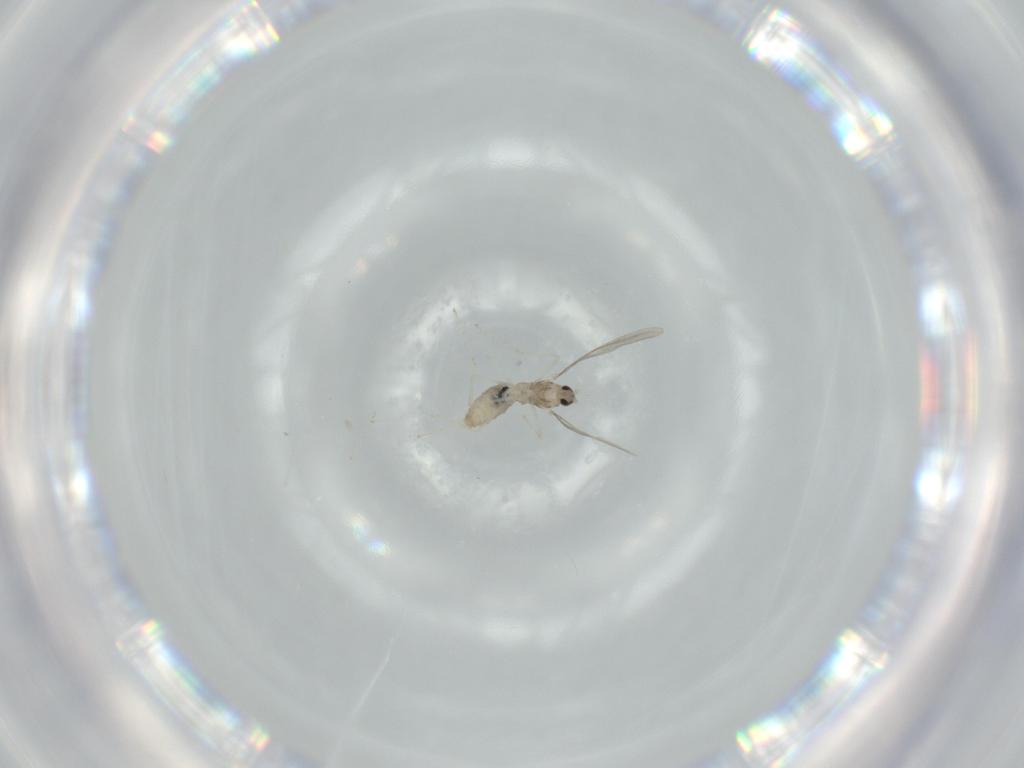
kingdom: Animalia
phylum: Arthropoda
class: Insecta
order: Diptera
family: Cecidomyiidae
